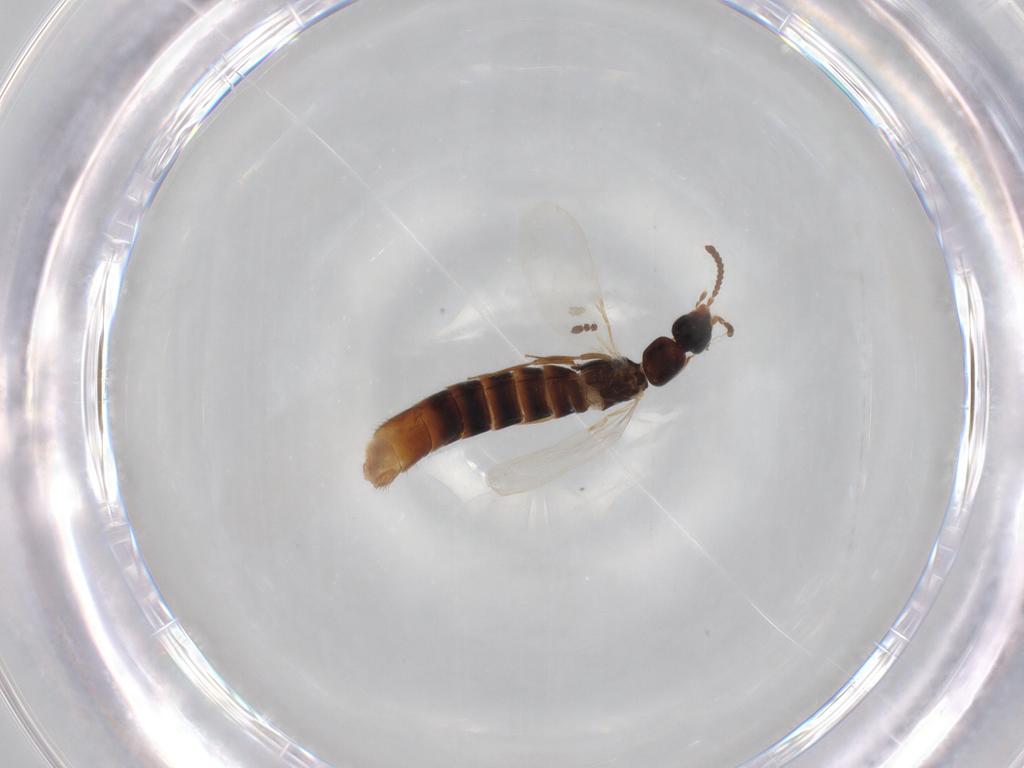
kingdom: Animalia
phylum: Arthropoda
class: Insecta
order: Coleoptera
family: Staphylinidae
